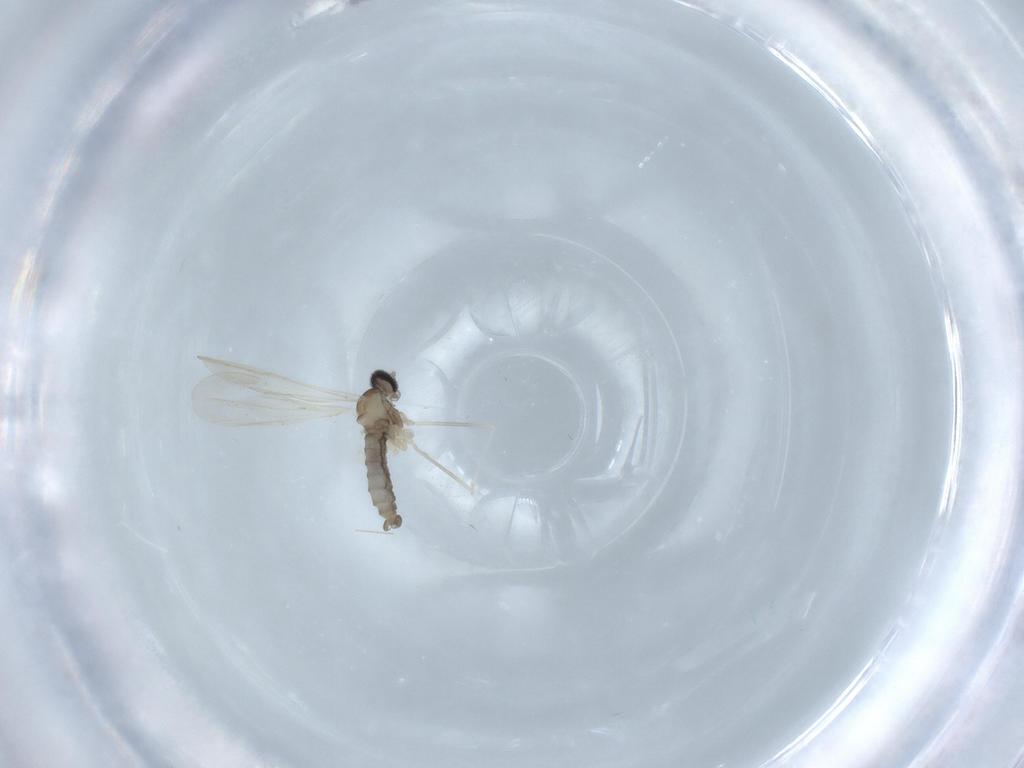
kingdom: Animalia
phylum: Arthropoda
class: Insecta
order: Diptera
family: Cecidomyiidae
